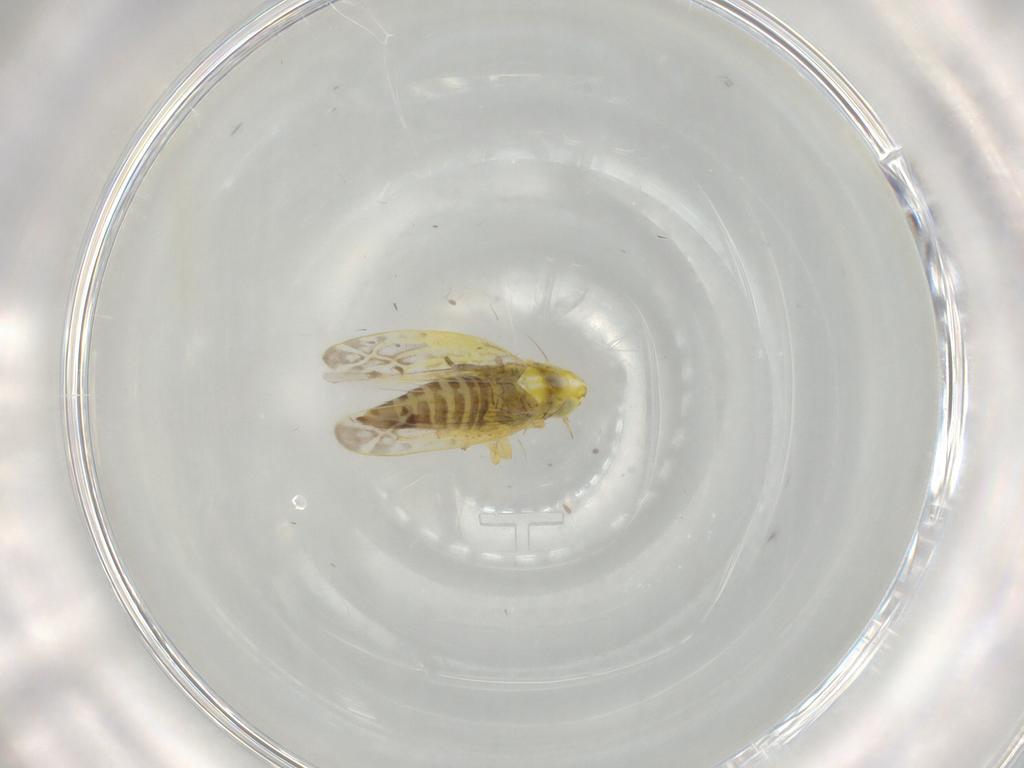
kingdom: Animalia
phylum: Arthropoda
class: Insecta
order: Hemiptera
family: Cicadellidae
